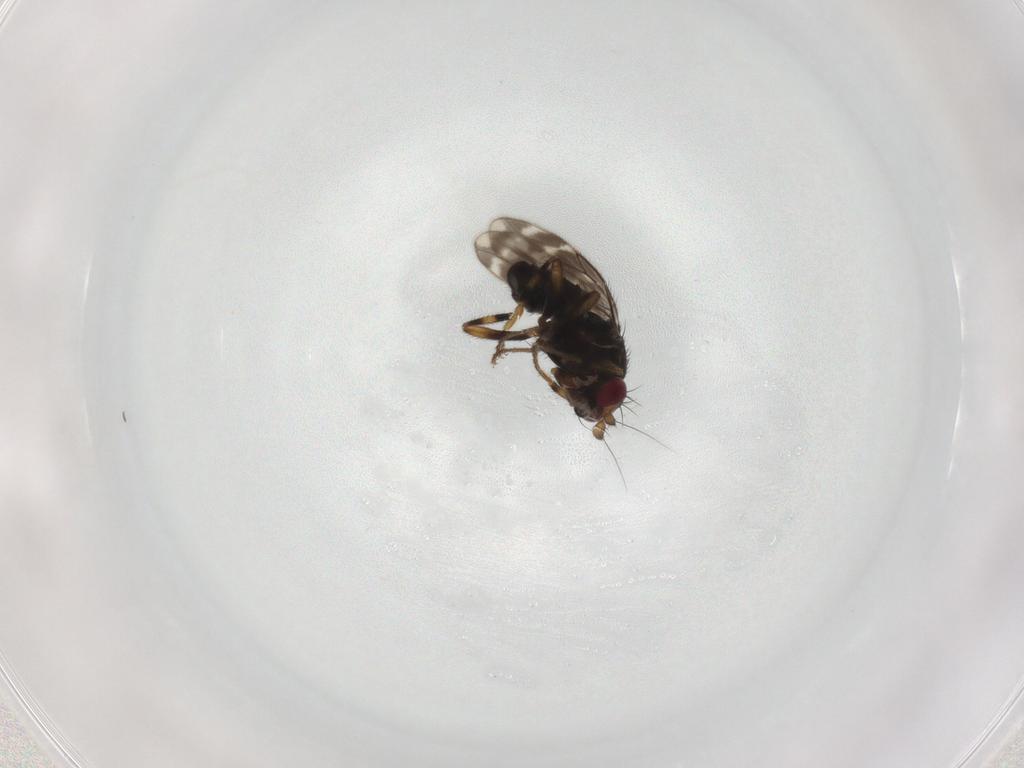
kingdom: Animalia
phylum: Arthropoda
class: Insecta
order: Diptera
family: Sphaeroceridae
